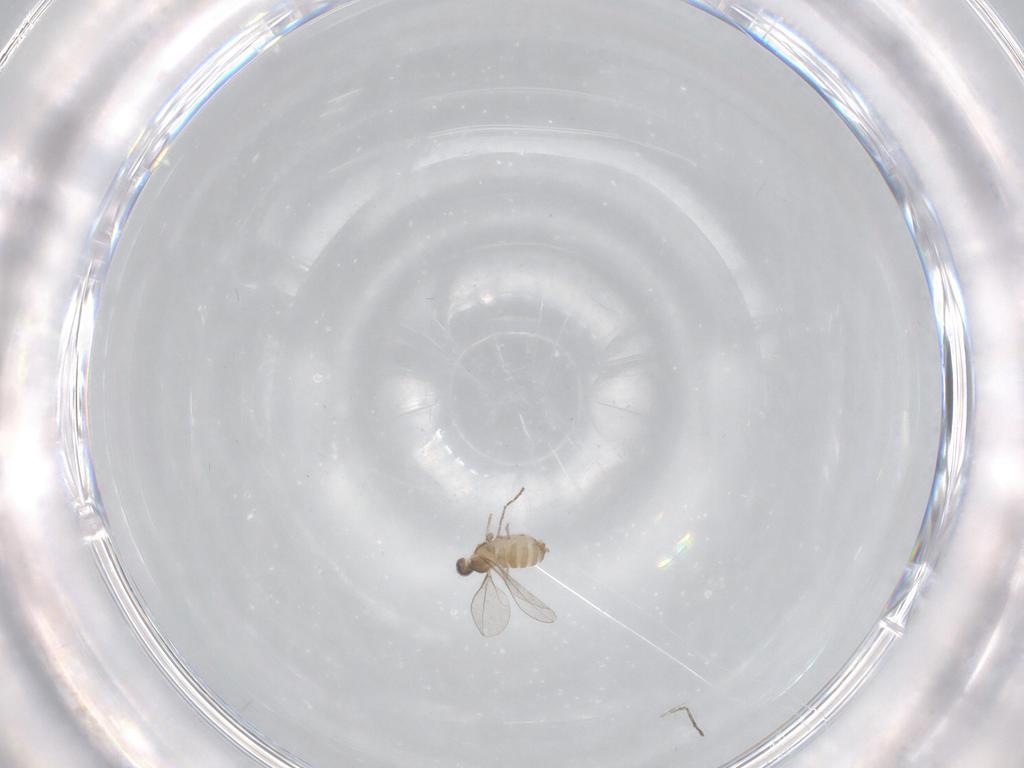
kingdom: Animalia
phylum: Arthropoda
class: Insecta
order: Diptera
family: Cecidomyiidae
